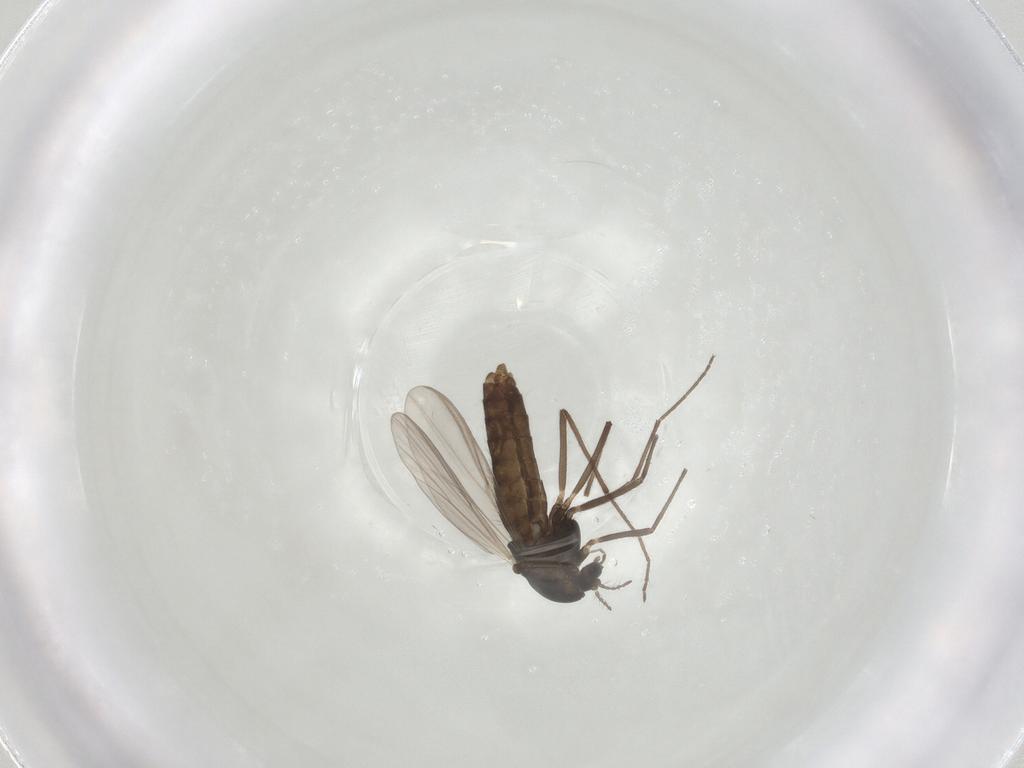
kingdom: Animalia
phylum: Arthropoda
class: Insecta
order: Diptera
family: Chironomidae
